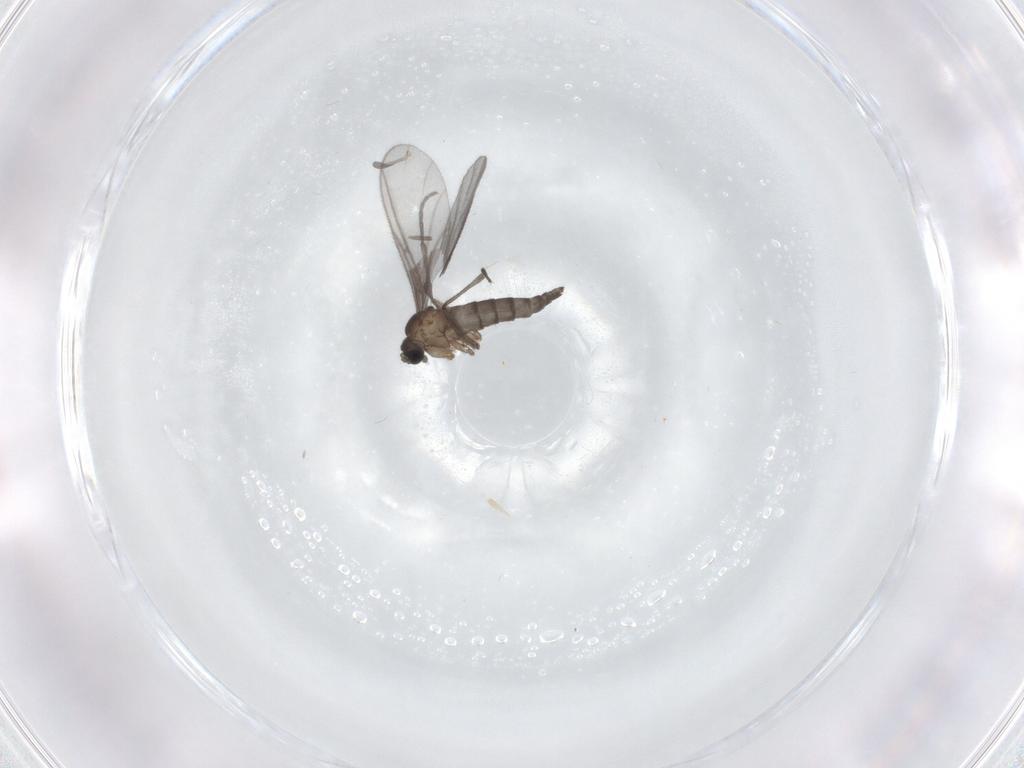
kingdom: Animalia
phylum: Arthropoda
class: Insecta
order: Diptera
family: Sciaridae
